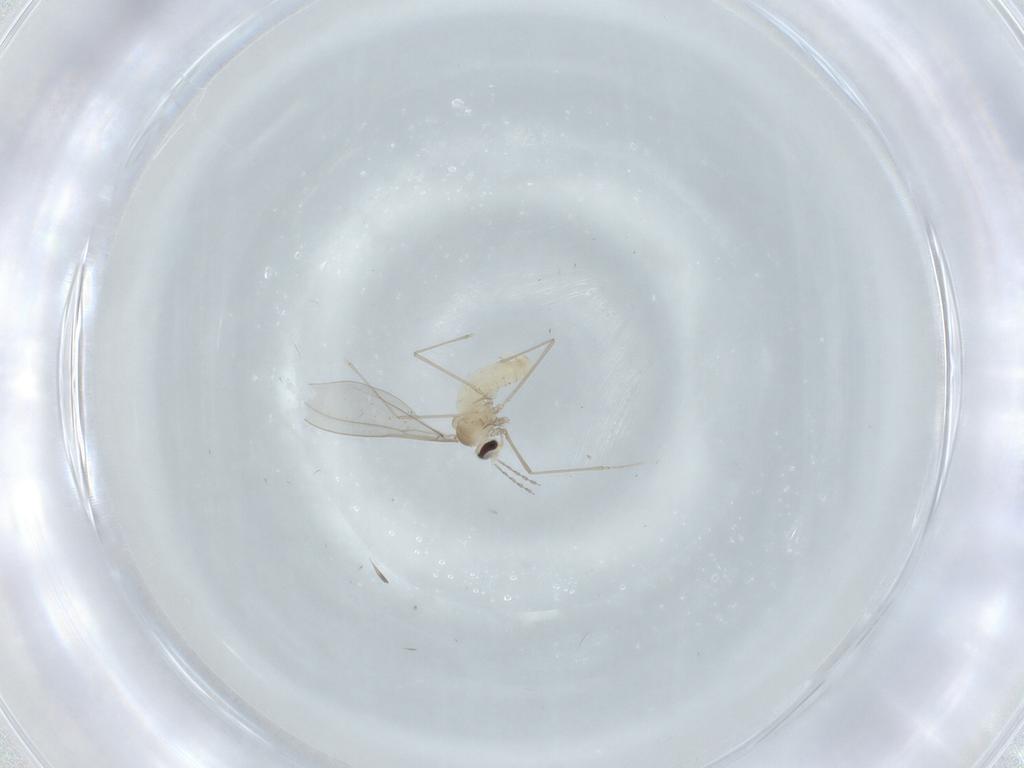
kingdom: Animalia
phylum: Arthropoda
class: Insecta
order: Diptera
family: Cecidomyiidae
